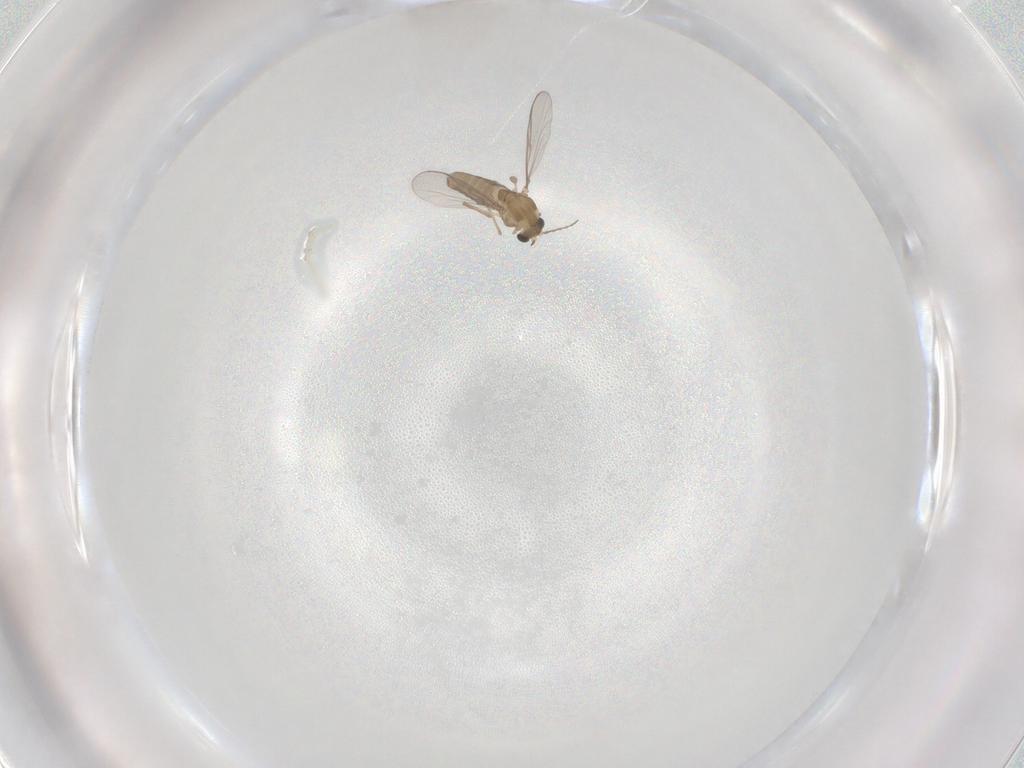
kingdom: Animalia
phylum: Arthropoda
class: Insecta
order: Diptera
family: Chironomidae
